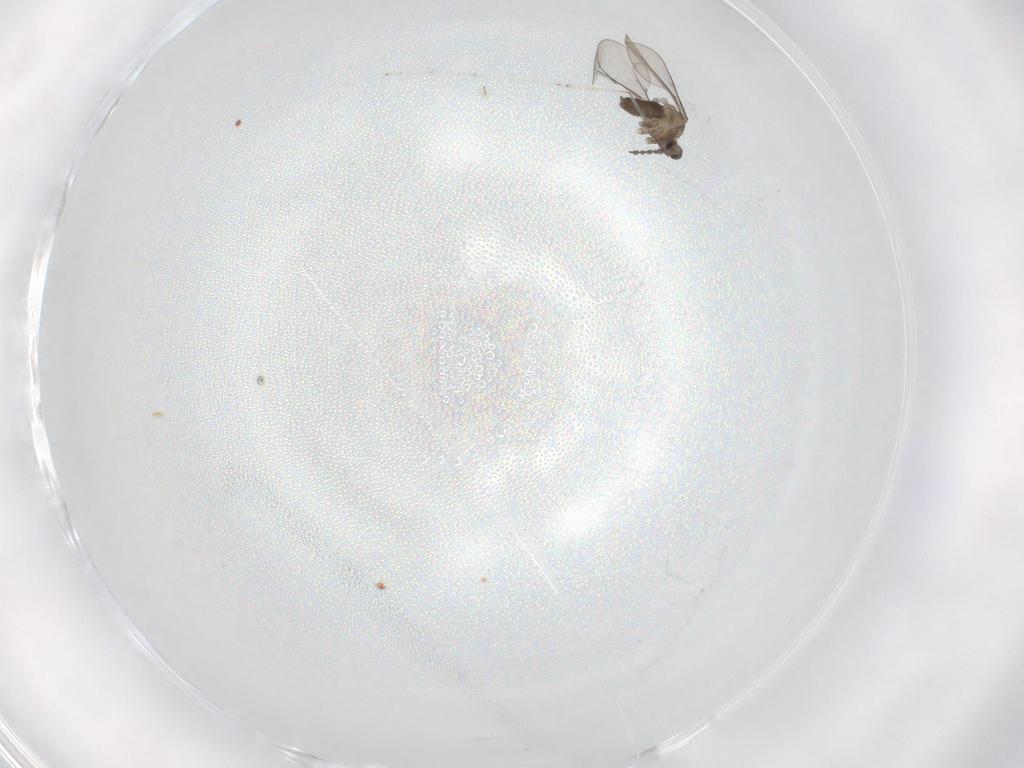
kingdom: Animalia
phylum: Arthropoda
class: Insecta
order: Diptera
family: Cecidomyiidae
